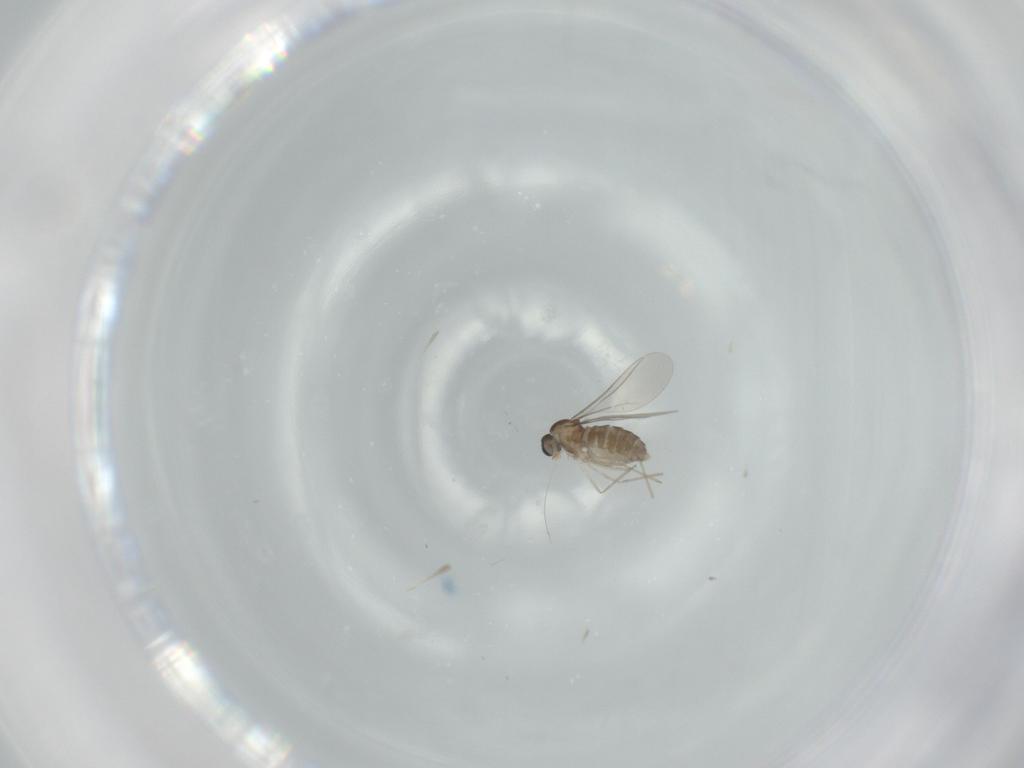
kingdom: Animalia
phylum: Arthropoda
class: Insecta
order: Diptera
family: Cecidomyiidae
